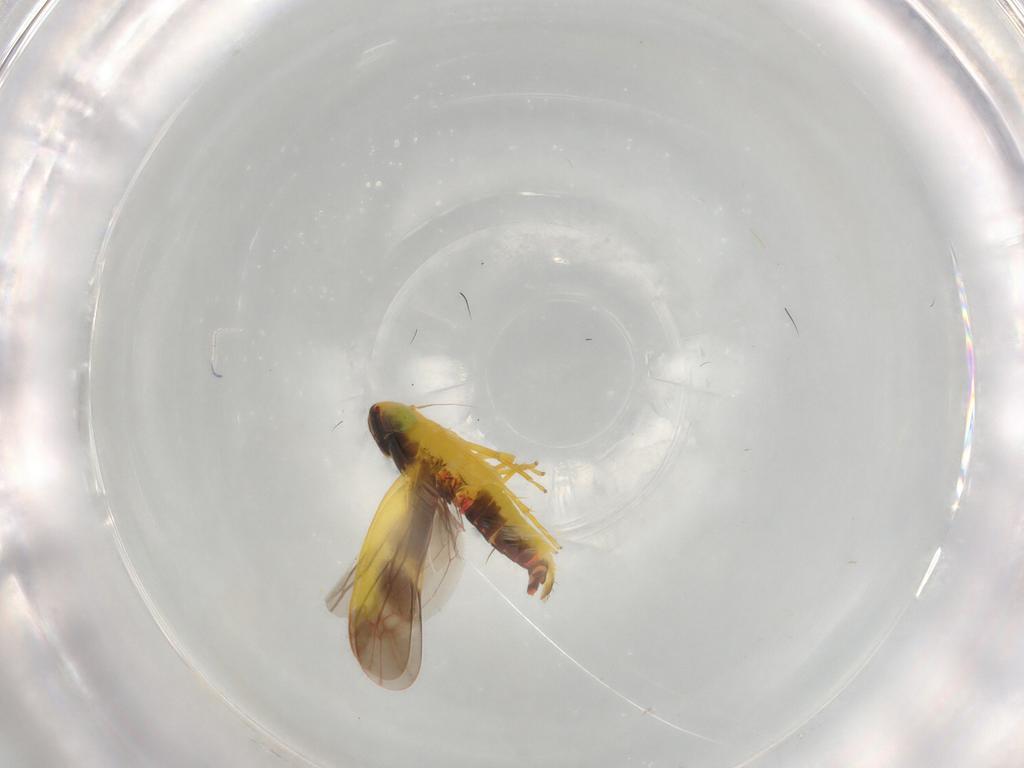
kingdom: Animalia
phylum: Arthropoda
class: Insecta
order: Hemiptera
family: Cicadellidae
